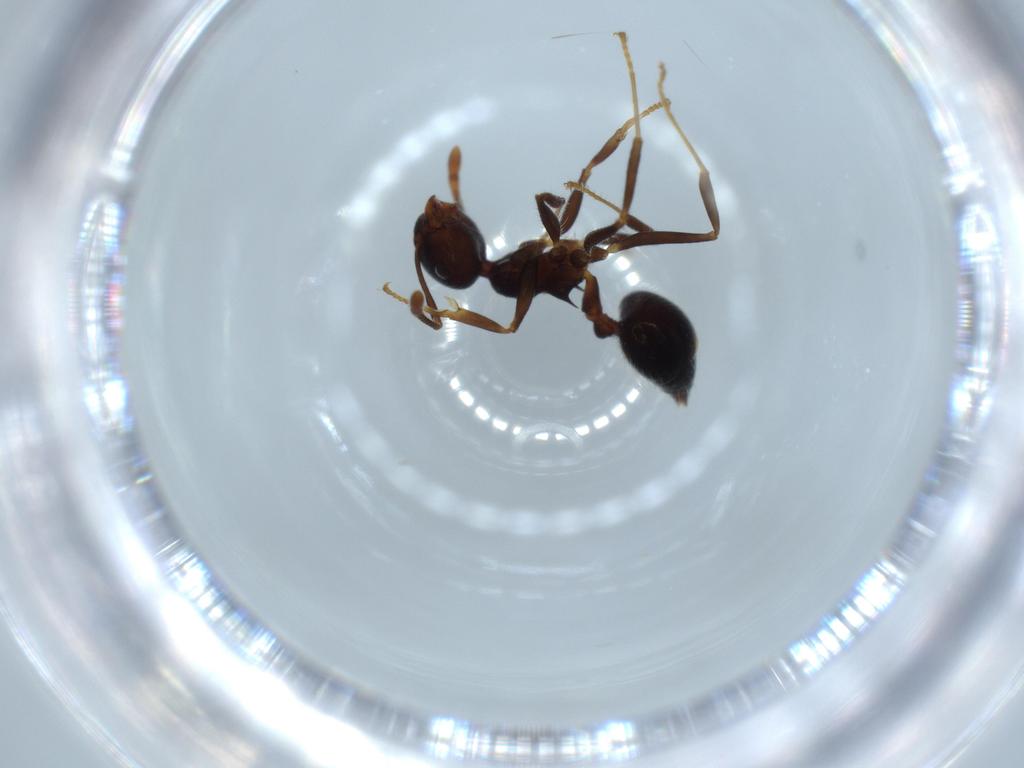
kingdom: Animalia
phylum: Arthropoda
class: Insecta
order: Hymenoptera
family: Formicidae
